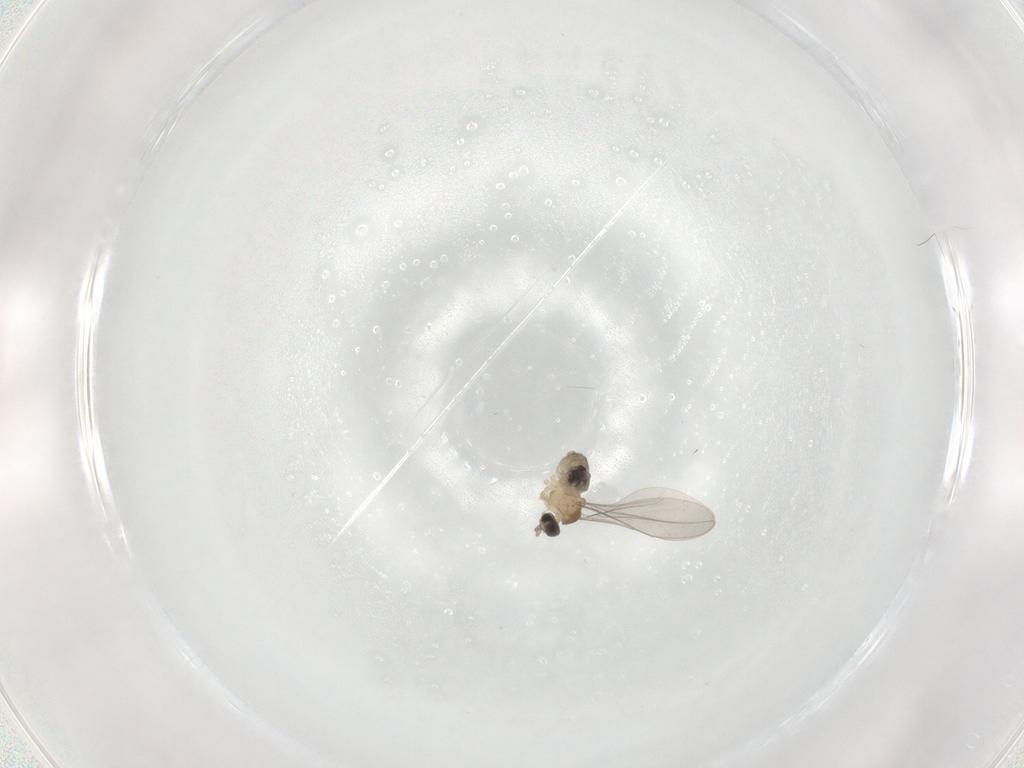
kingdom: Animalia
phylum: Arthropoda
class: Insecta
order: Diptera
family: Cecidomyiidae
